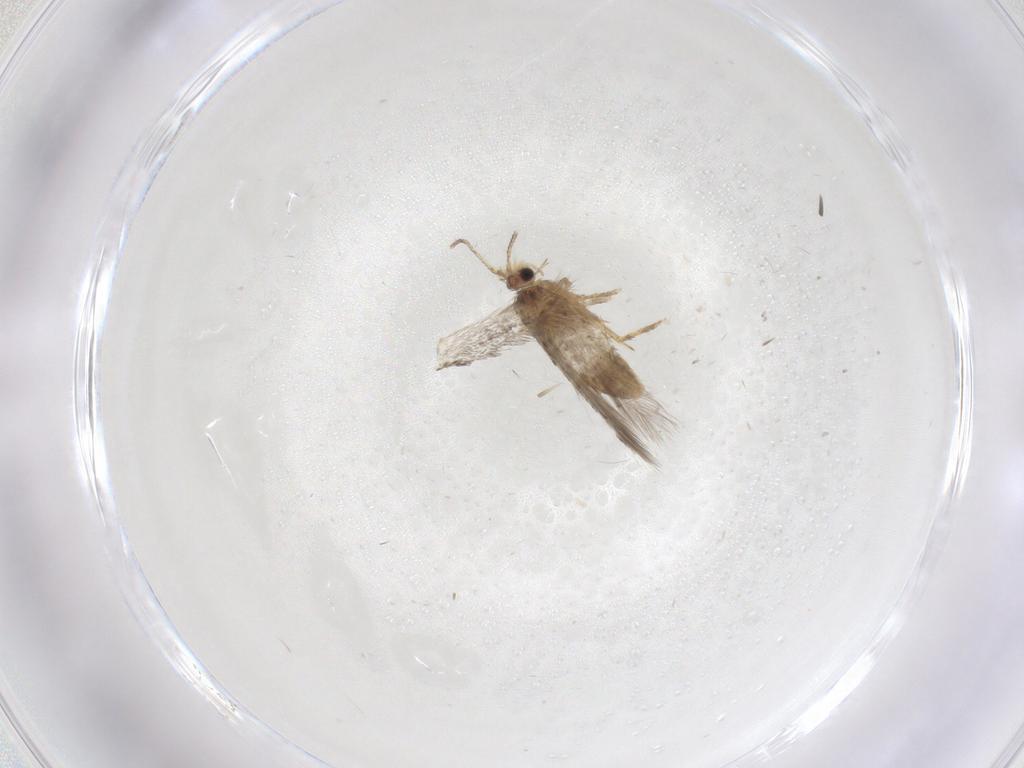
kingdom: Animalia
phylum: Arthropoda
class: Insecta
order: Lepidoptera
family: Nepticulidae
